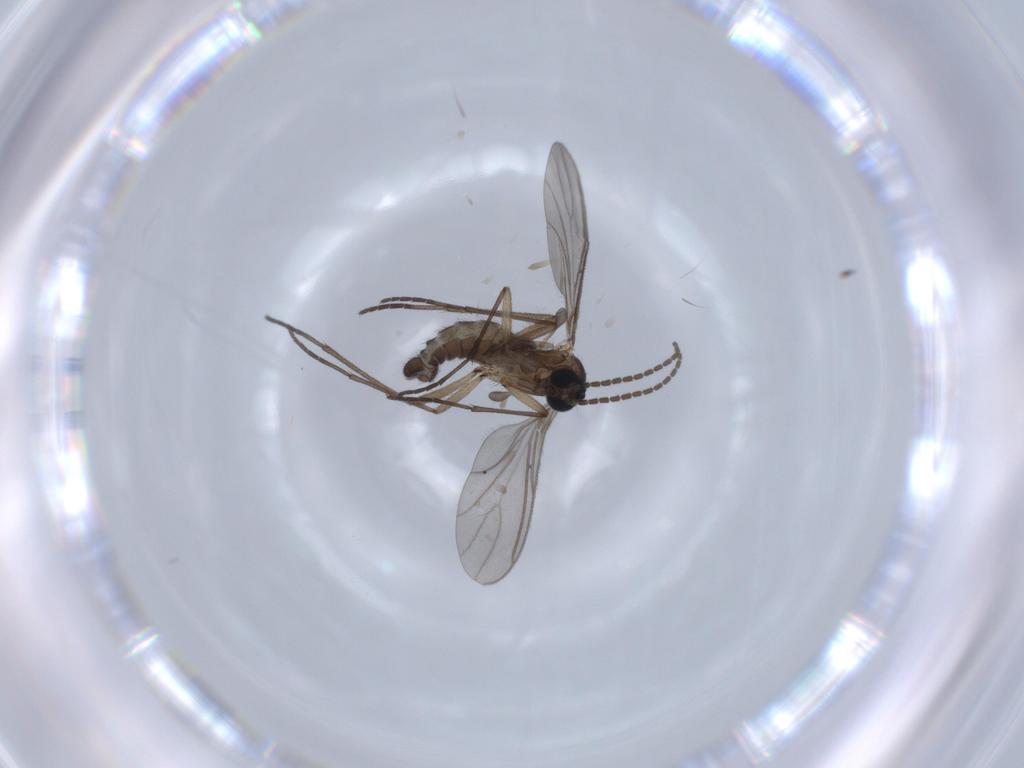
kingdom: Animalia
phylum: Arthropoda
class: Insecta
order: Diptera
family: Sciaridae
